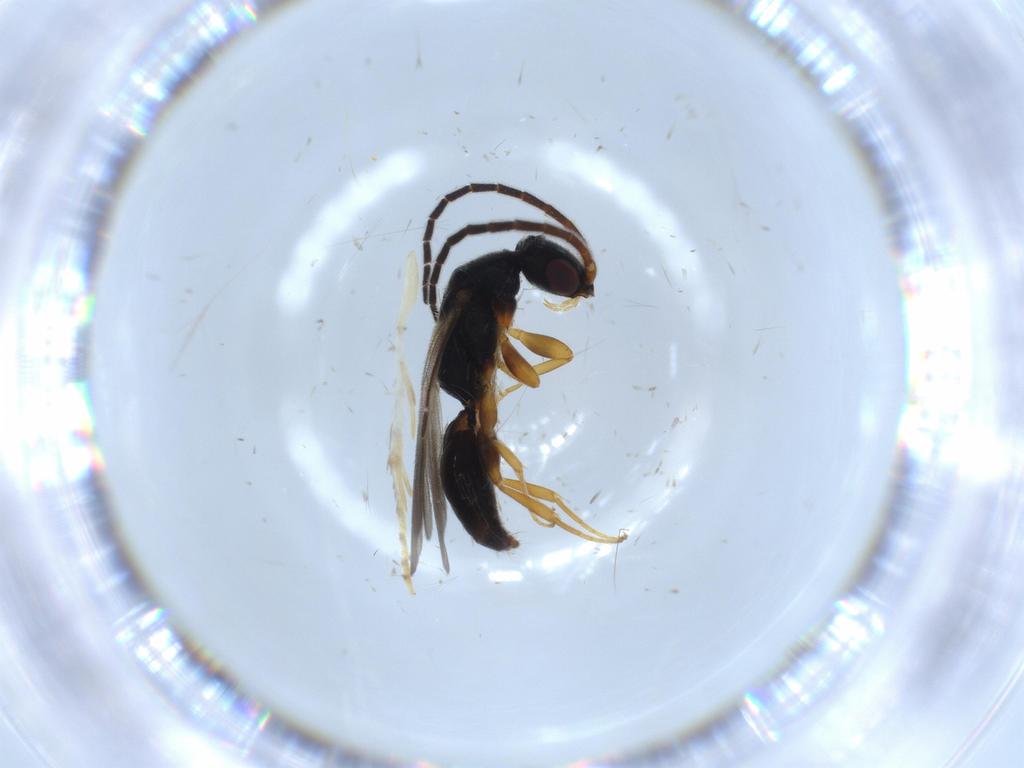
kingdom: Animalia
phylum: Arthropoda
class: Insecta
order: Hymenoptera
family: Bethylidae
